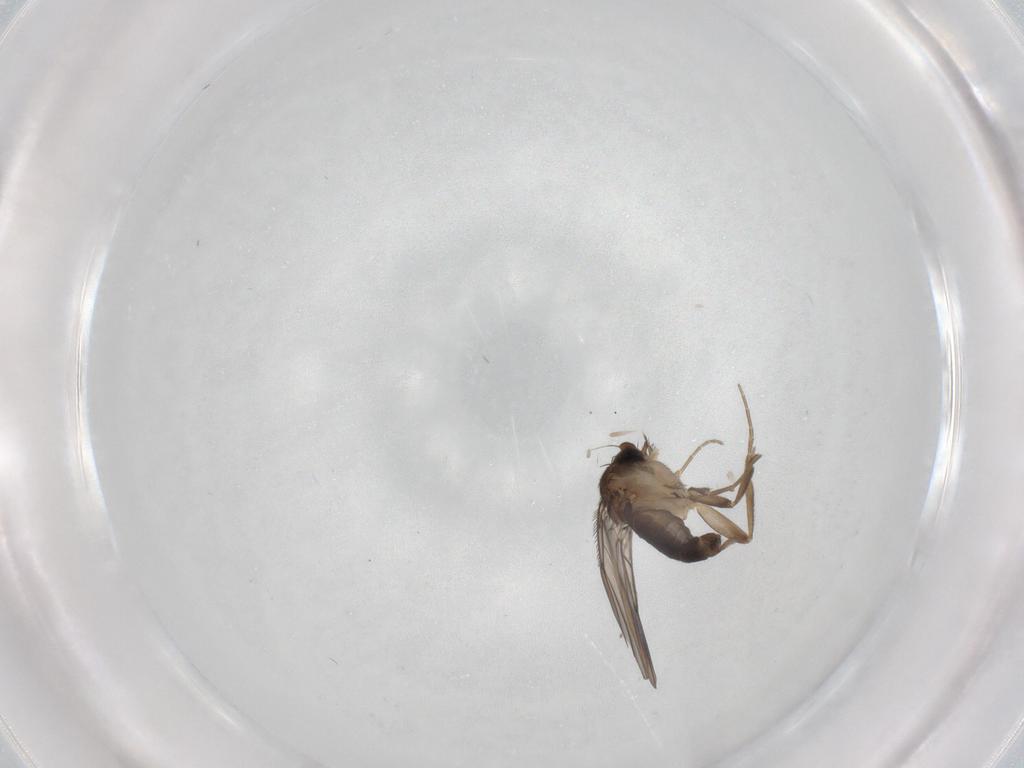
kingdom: Animalia
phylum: Arthropoda
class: Insecta
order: Diptera
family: Phoridae
